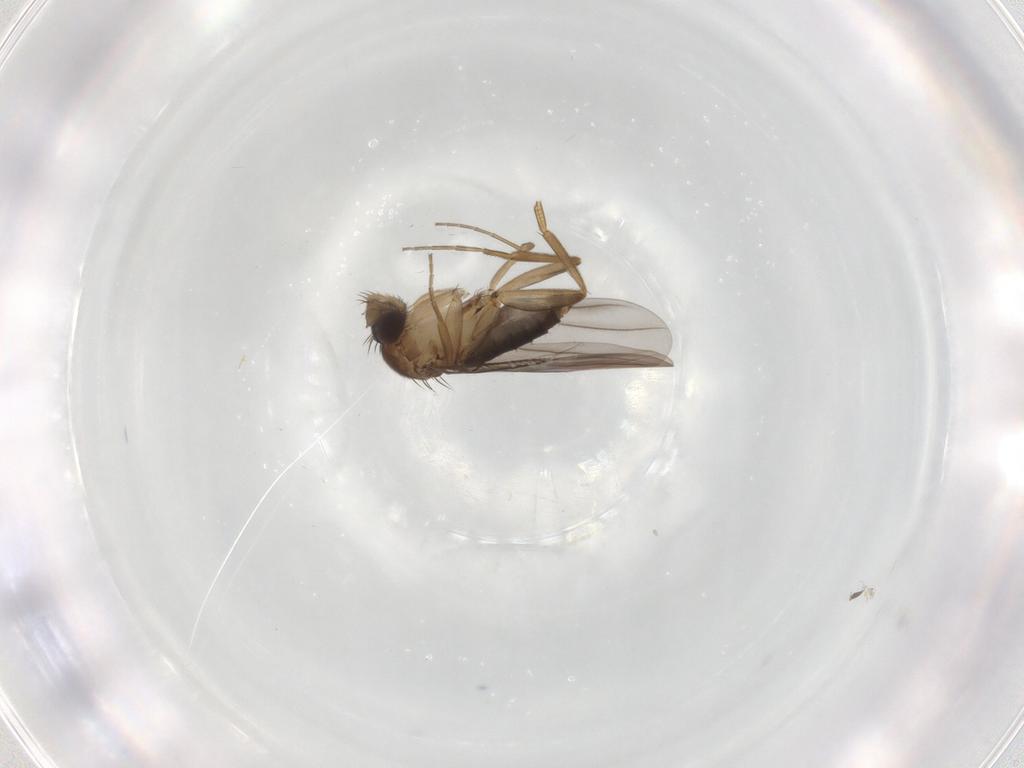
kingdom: Animalia
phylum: Arthropoda
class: Insecta
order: Diptera
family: Phoridae
